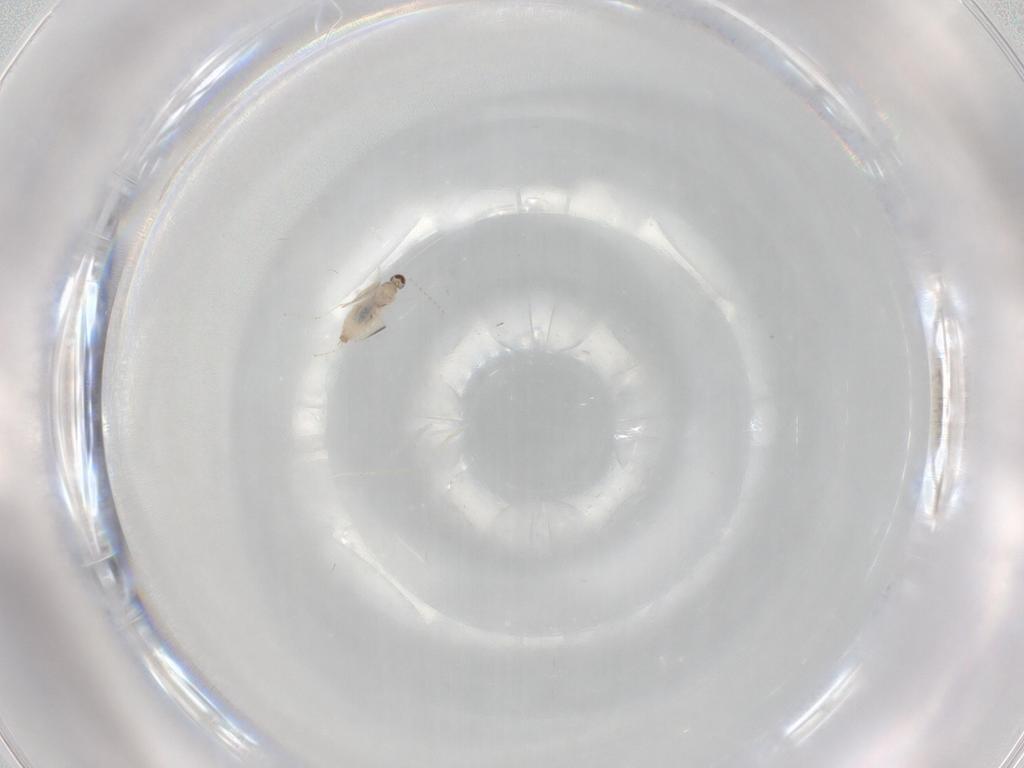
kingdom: Animalia
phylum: Arthropoda
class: Insecta
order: Diptera
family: Cecidomyiidae
